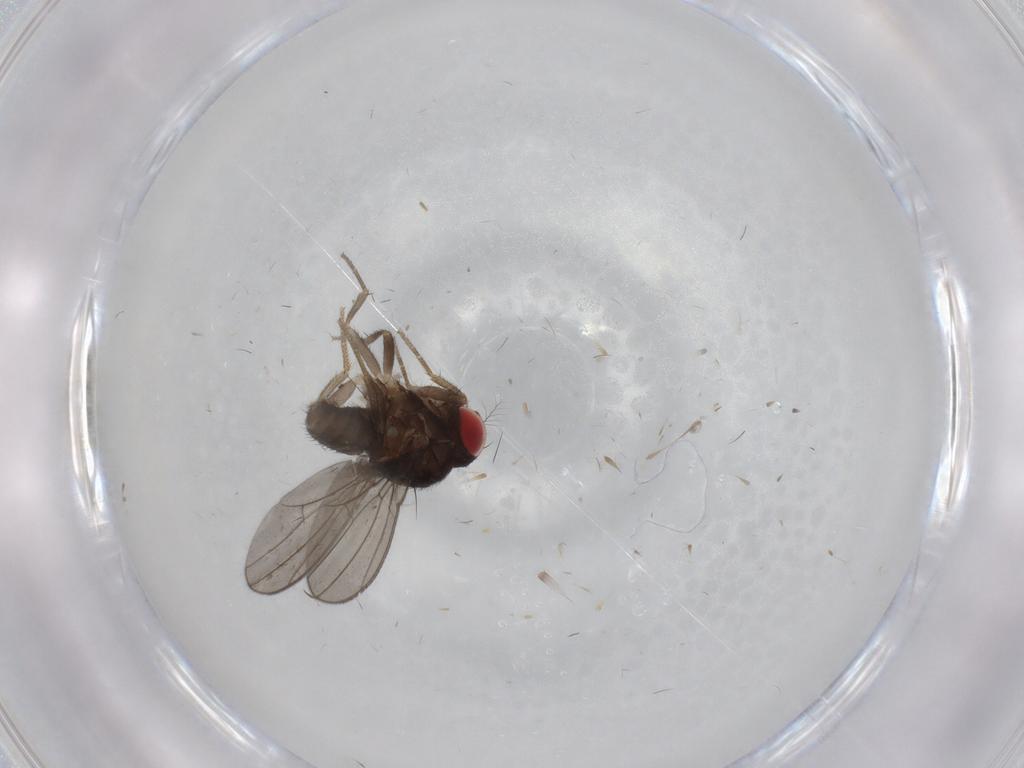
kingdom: Animalia
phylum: Arthropoda
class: Insecta
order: Diptera
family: Drosophilidae
